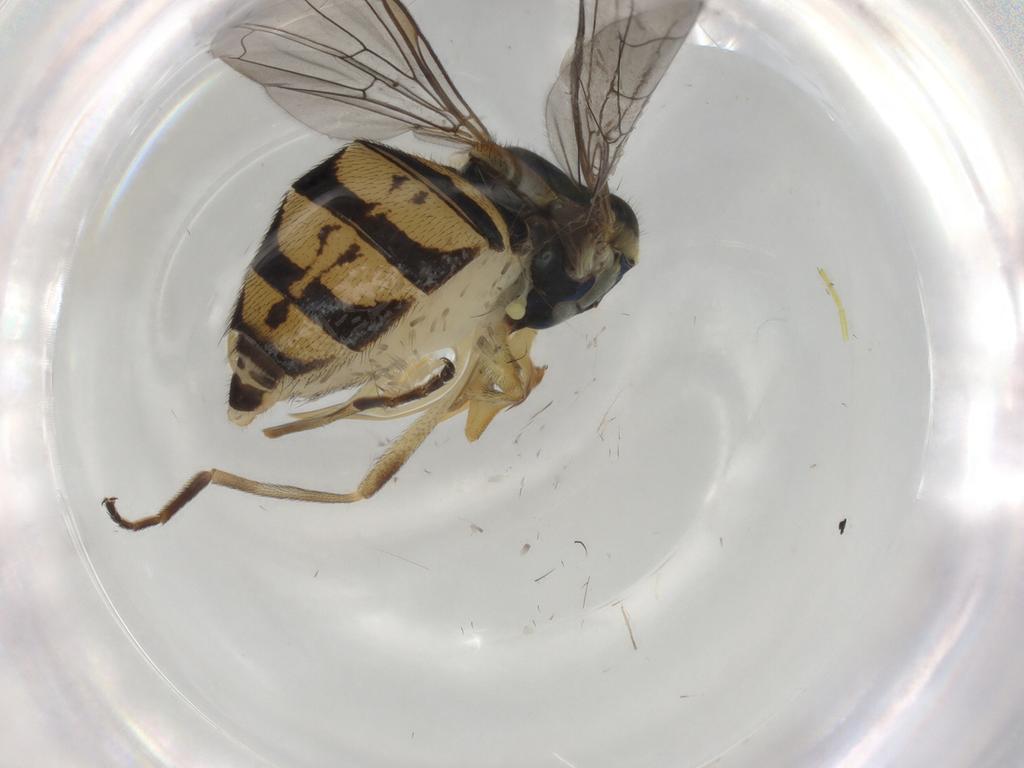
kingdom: Animalia
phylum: Arthropoda
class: Insecta
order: Diptera
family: Syrphidae
